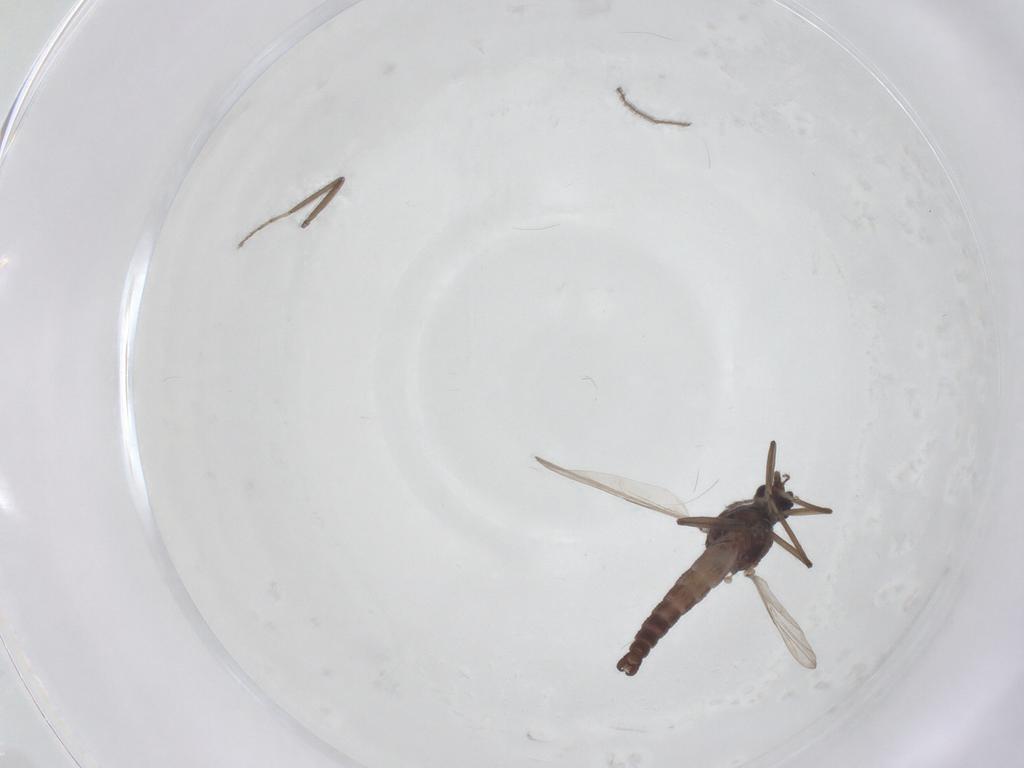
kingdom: Animalia
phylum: Arthropoda
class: Insecta
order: Diptera
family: Ceratopogonidae
